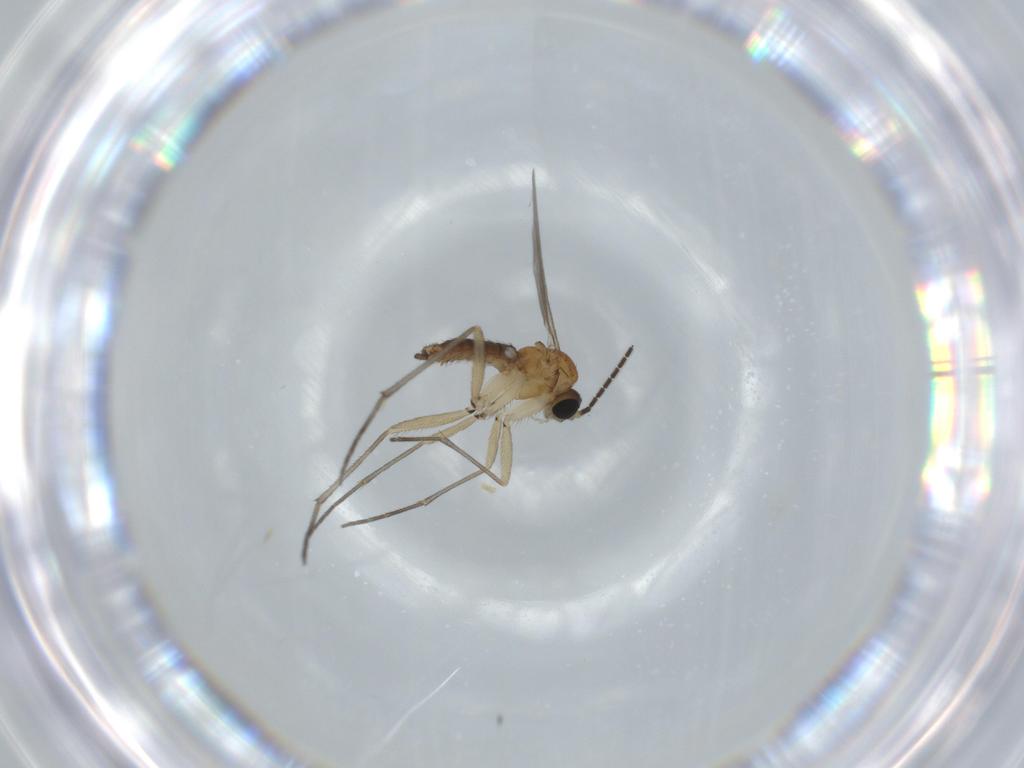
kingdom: Animalia
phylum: Arthropoda
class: Insecta
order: Diptera
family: Sciaridae
